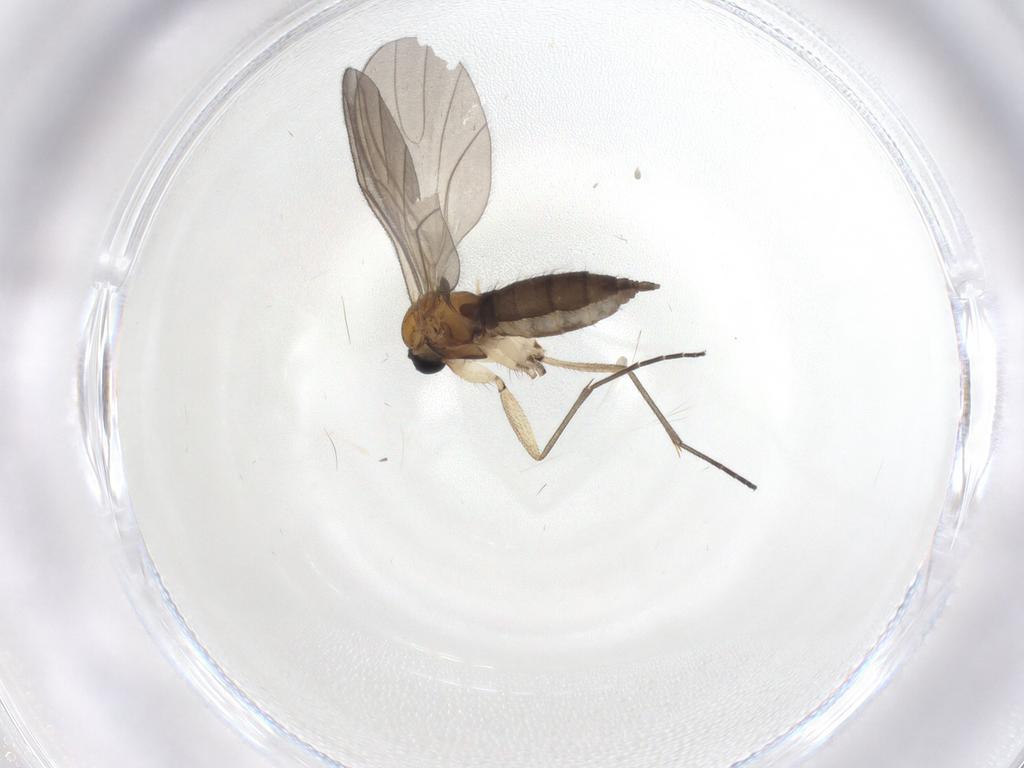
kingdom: Animalia
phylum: Arthropoda
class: Insecta
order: Diptera
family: Sciaridae
